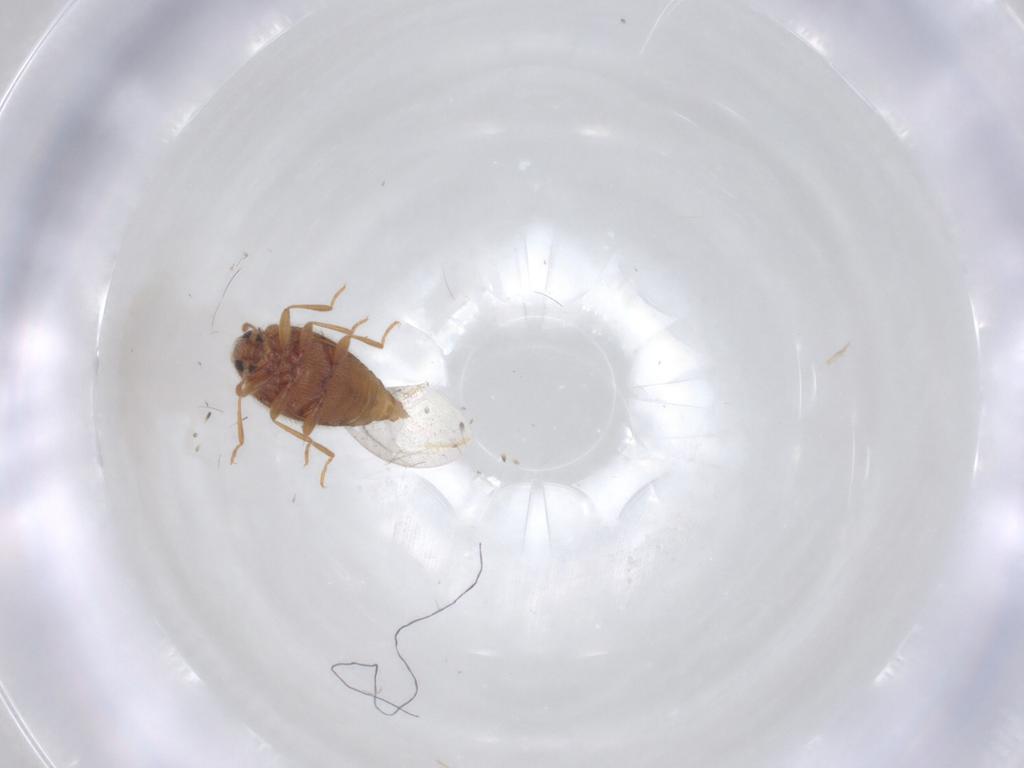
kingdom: Animalia
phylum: Arthropoda
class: Insecta
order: Coleoptera
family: Latridiidae
